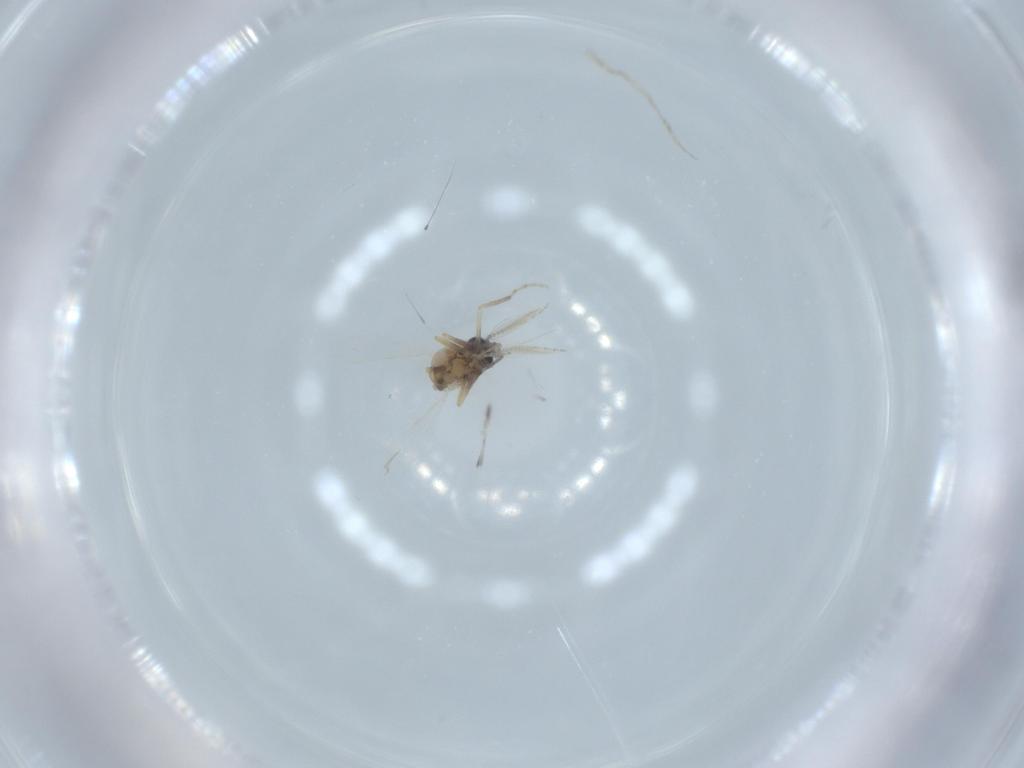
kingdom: Animalia
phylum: Arthropoda
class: Insecta
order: Diptera
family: Ceratopogonidae
